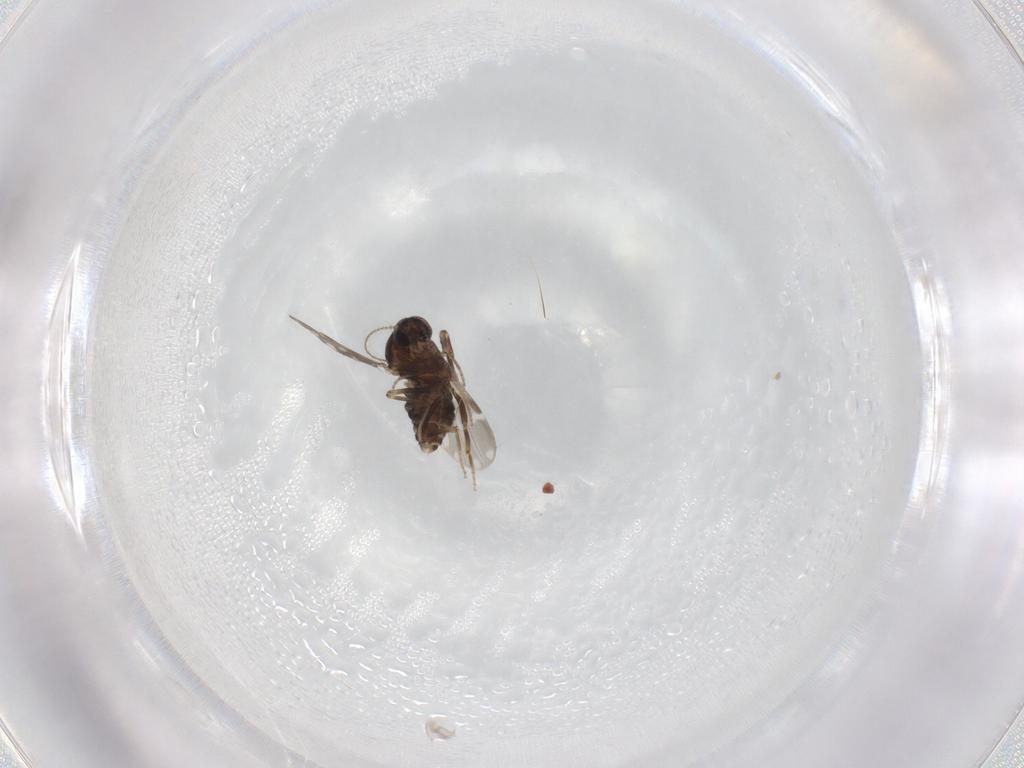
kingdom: Animalia
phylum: Arthropoda
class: Insecta
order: Diptera
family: Ceratopogonidae
